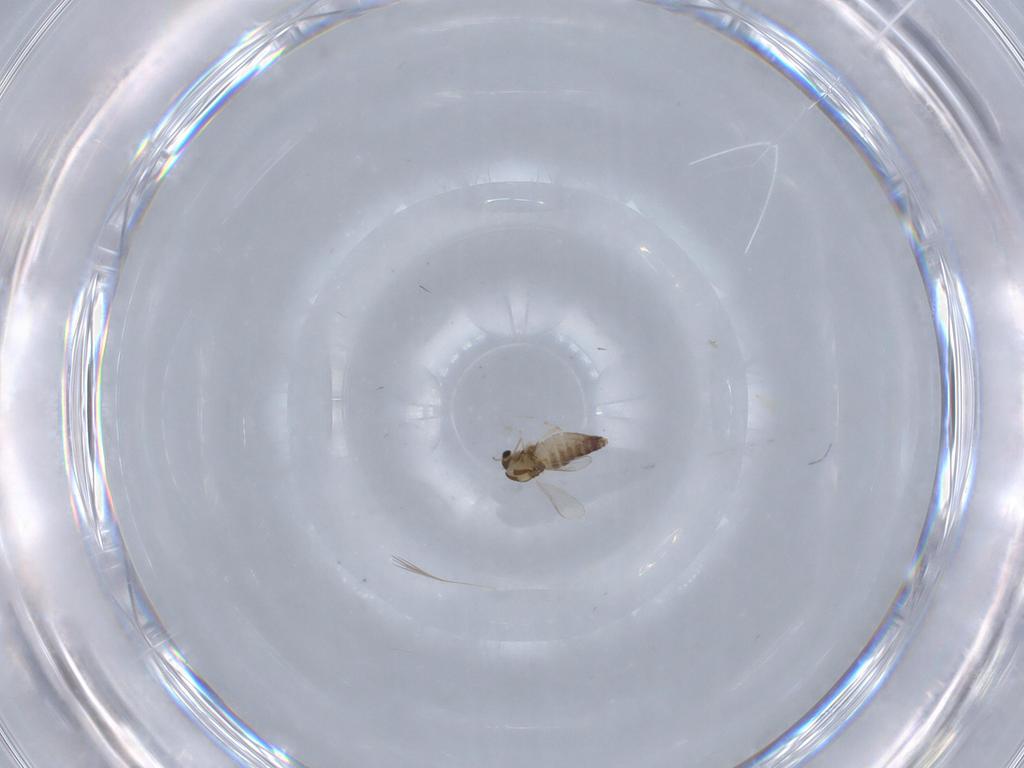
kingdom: Animalia
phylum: Arthropoda
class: Insecta
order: Diptera
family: Chironomidae
